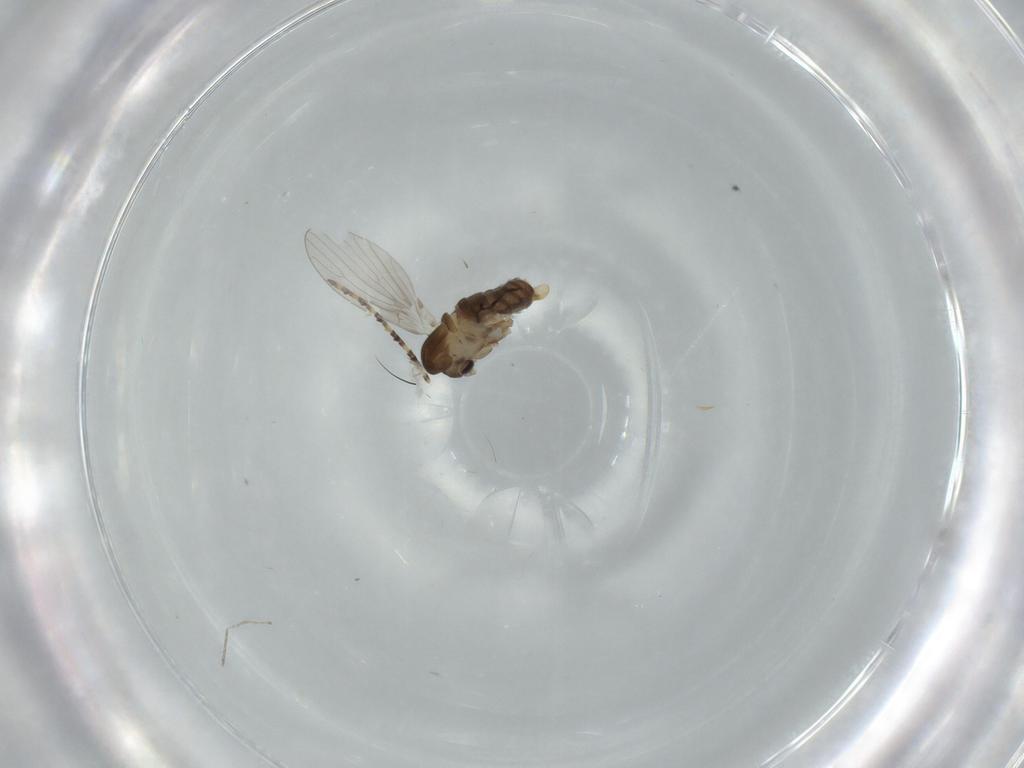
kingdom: Animalia
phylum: Arthropoda
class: Insecta
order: Diptera
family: Cecidomyiidae
